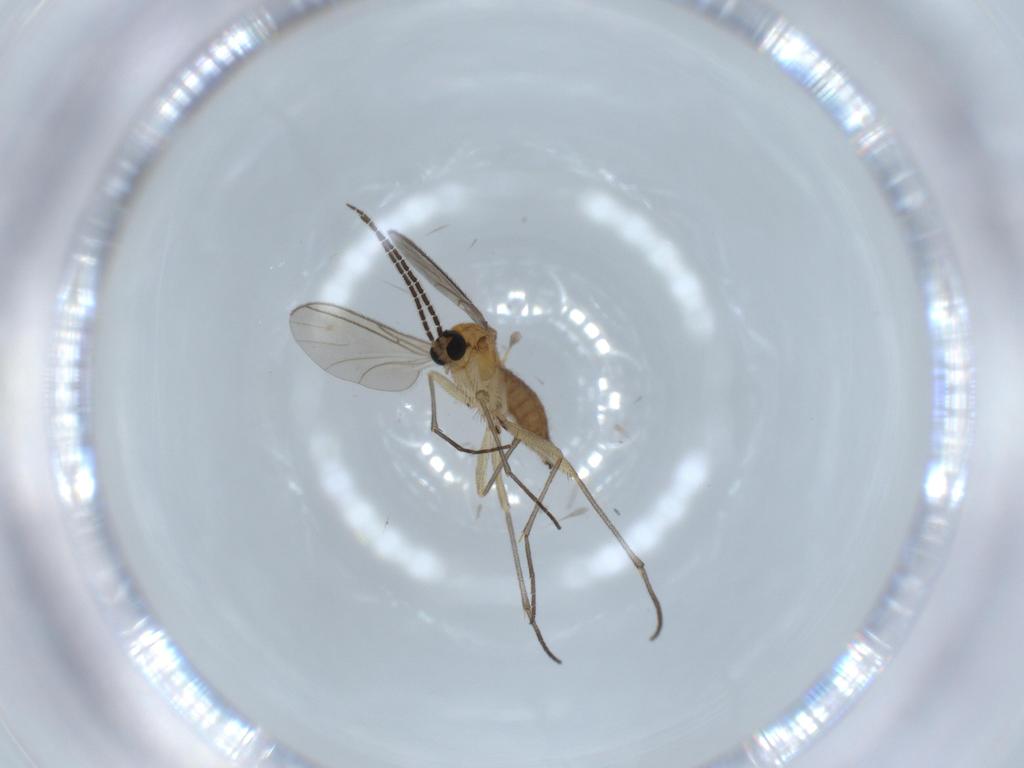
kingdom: Animalia
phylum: Arthropoda
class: Insecta
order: Diptera
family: Sciaridae
